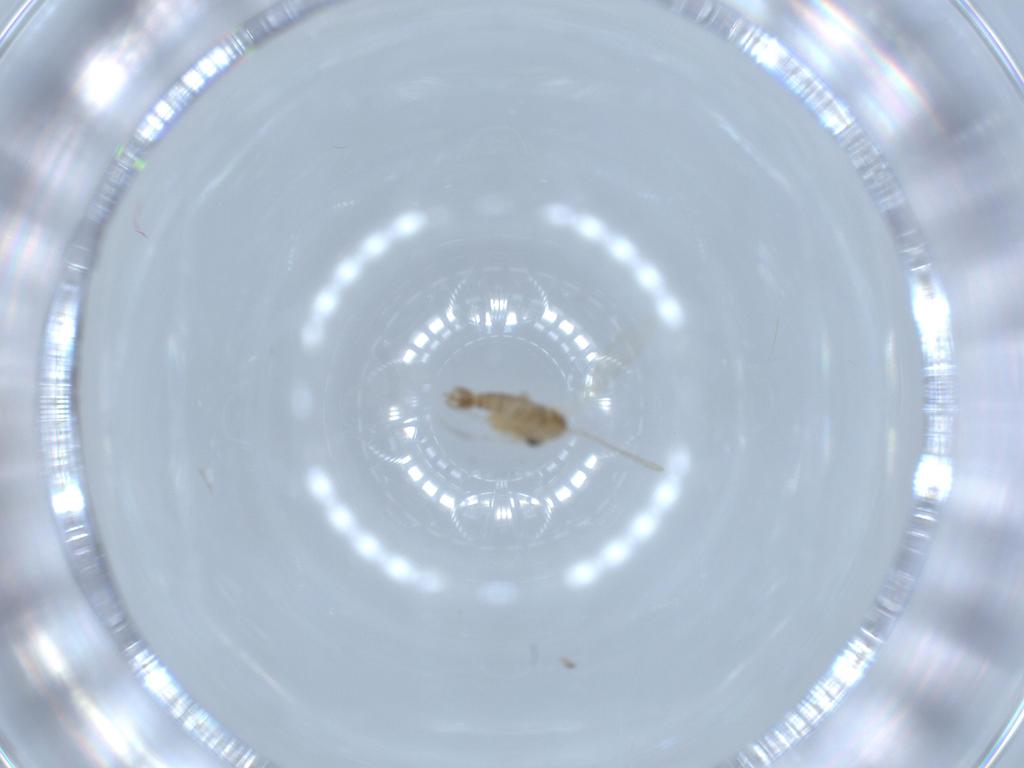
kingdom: Animalia
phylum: Arthropoda
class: Insecta
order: Diptera
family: Psychodidae
